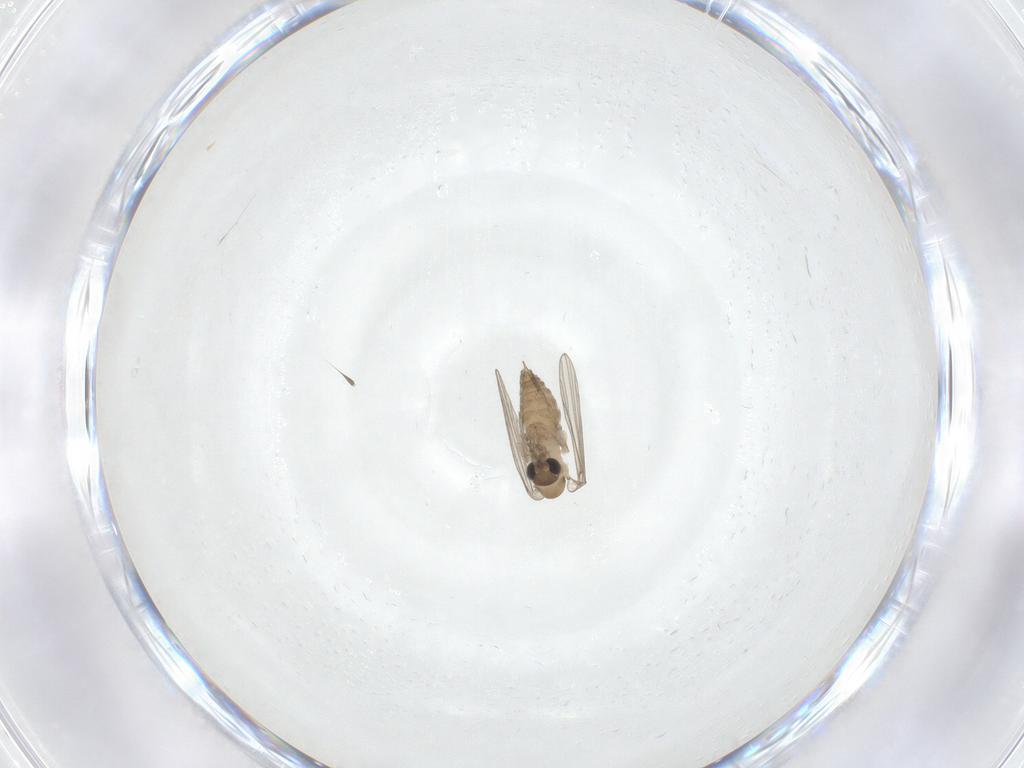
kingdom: Animalia
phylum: Arthropoda
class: Insecta
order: Diptera
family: Psychodidae
